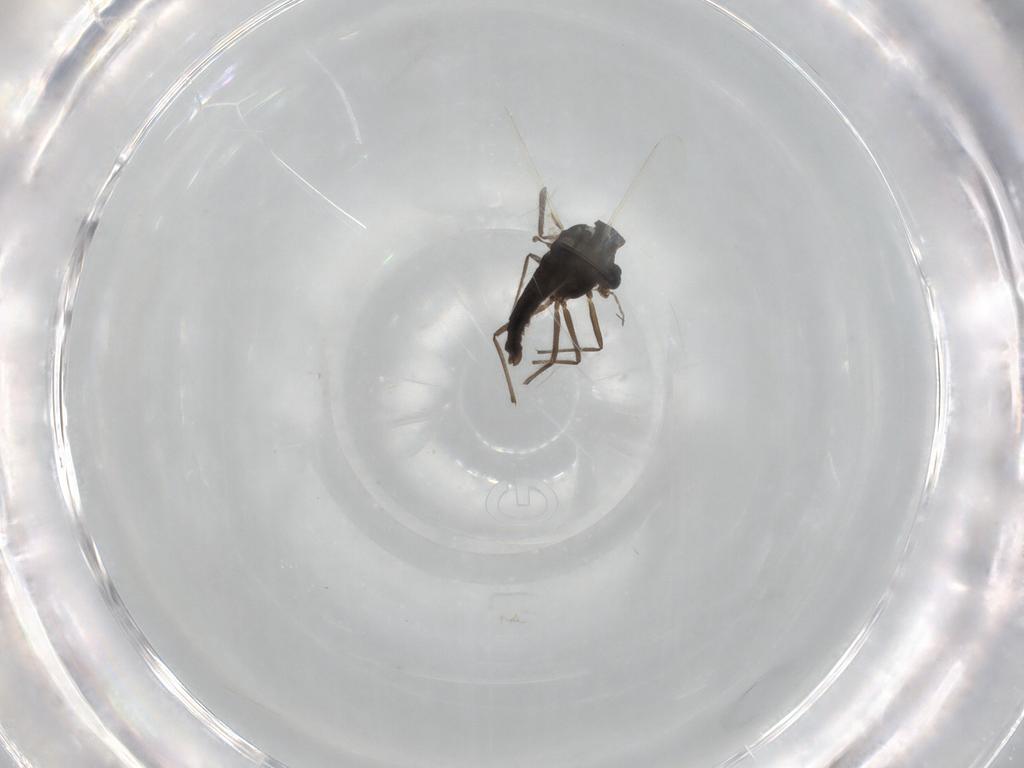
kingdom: Animalia
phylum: Arthropoda
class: Insecta
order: Diptera
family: Chironomidae
